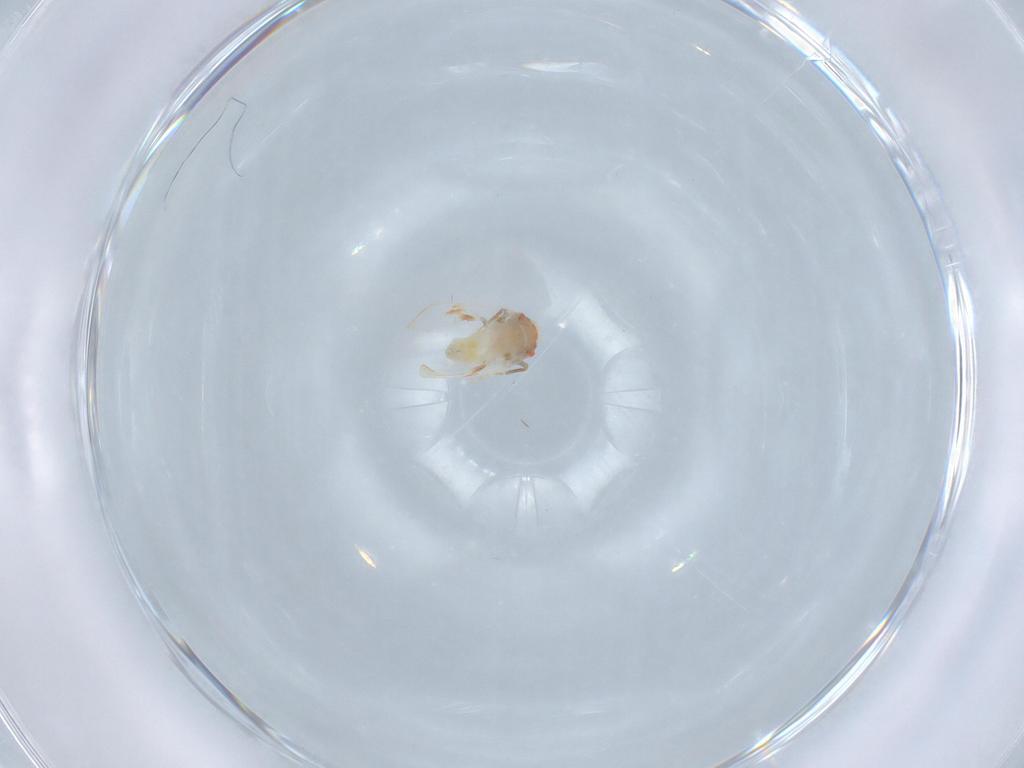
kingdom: Animalia
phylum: Arthropoda
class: Insecta
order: Hemiptera
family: Aleyrodidae
